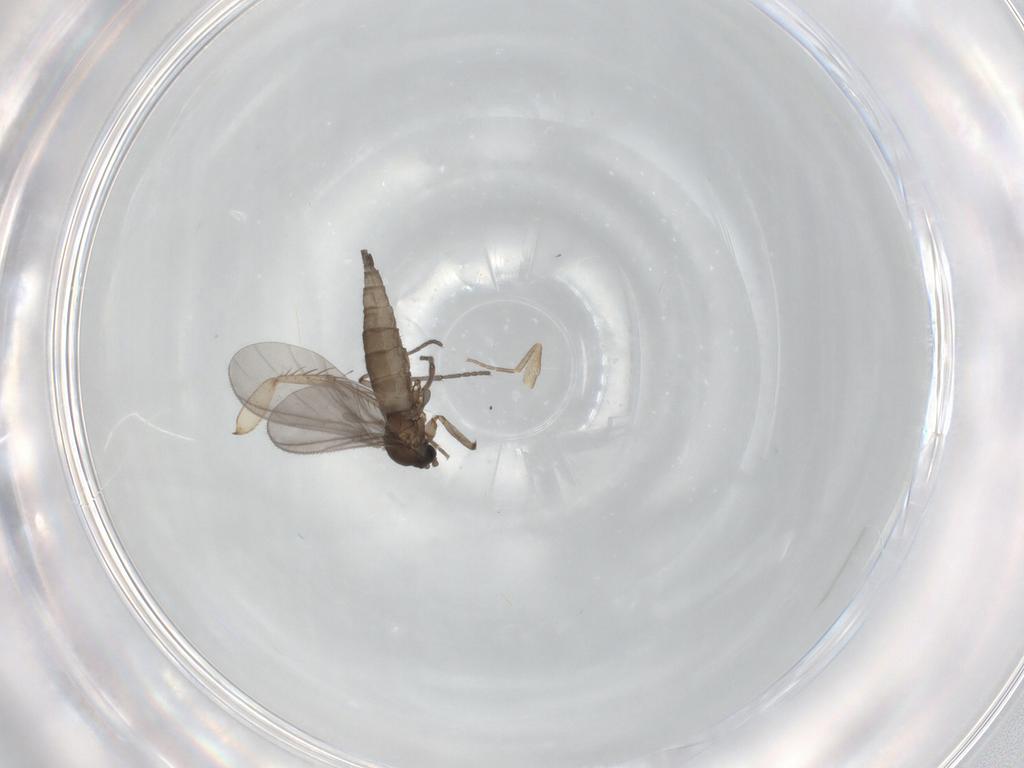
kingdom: Animalia
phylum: Arthropoda
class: Insecta
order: Diptera
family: Sciaridae
